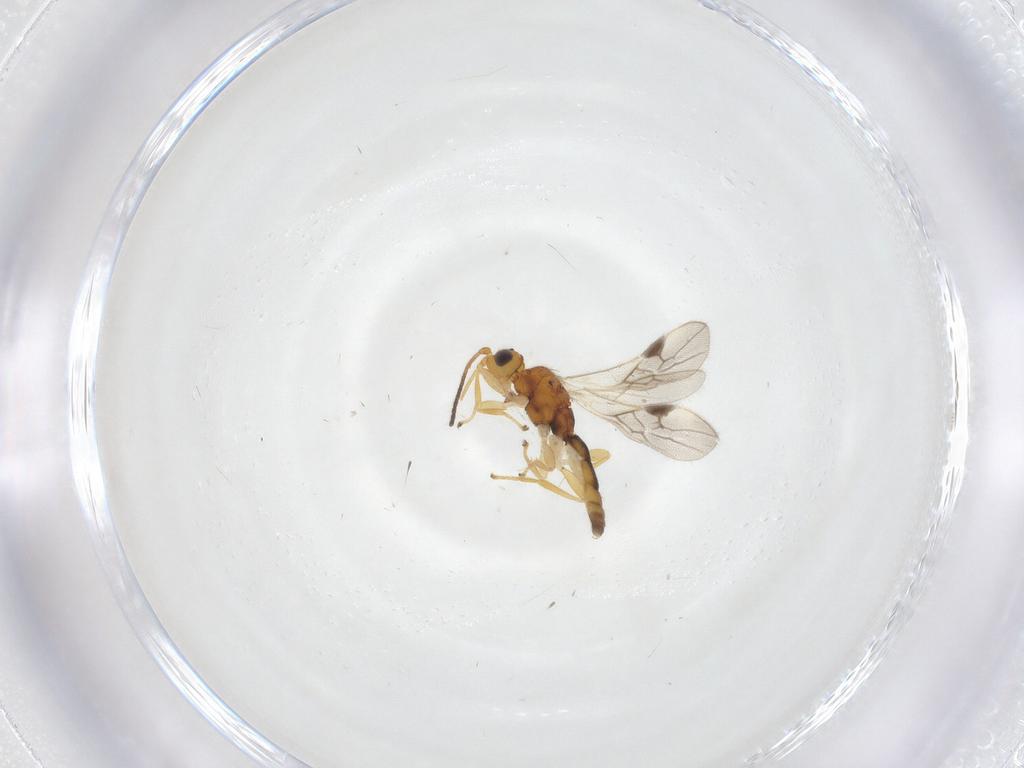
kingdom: Animalia
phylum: Arthropoda
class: Insecta
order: Hymenoptera
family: Braconidae
